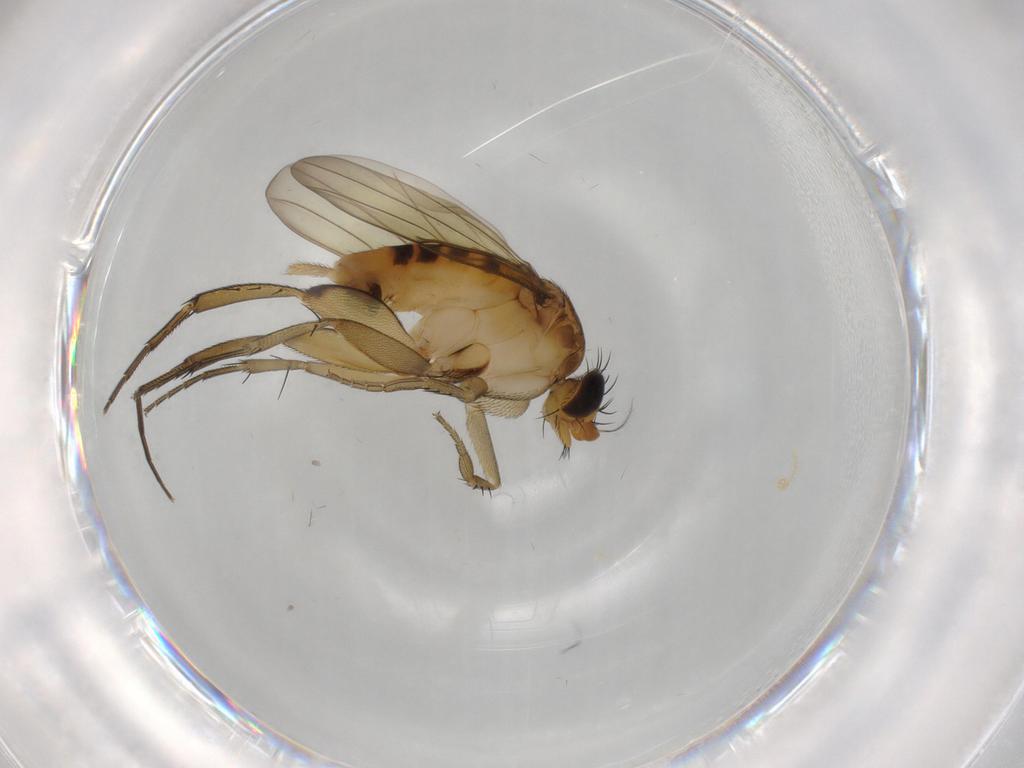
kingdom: Animalia
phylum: Arthropoda
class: Insecta
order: Diptera
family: Phoridae
